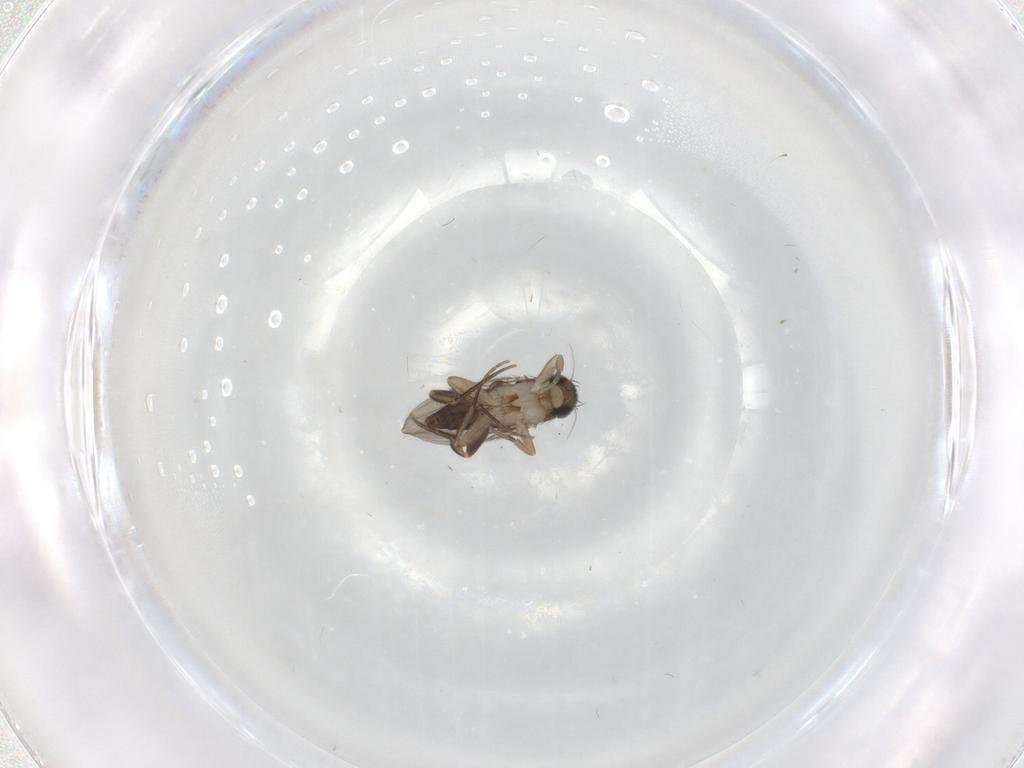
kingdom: Animalia
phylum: Arthropoda
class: Insecta
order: Diptera
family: Phoridae
